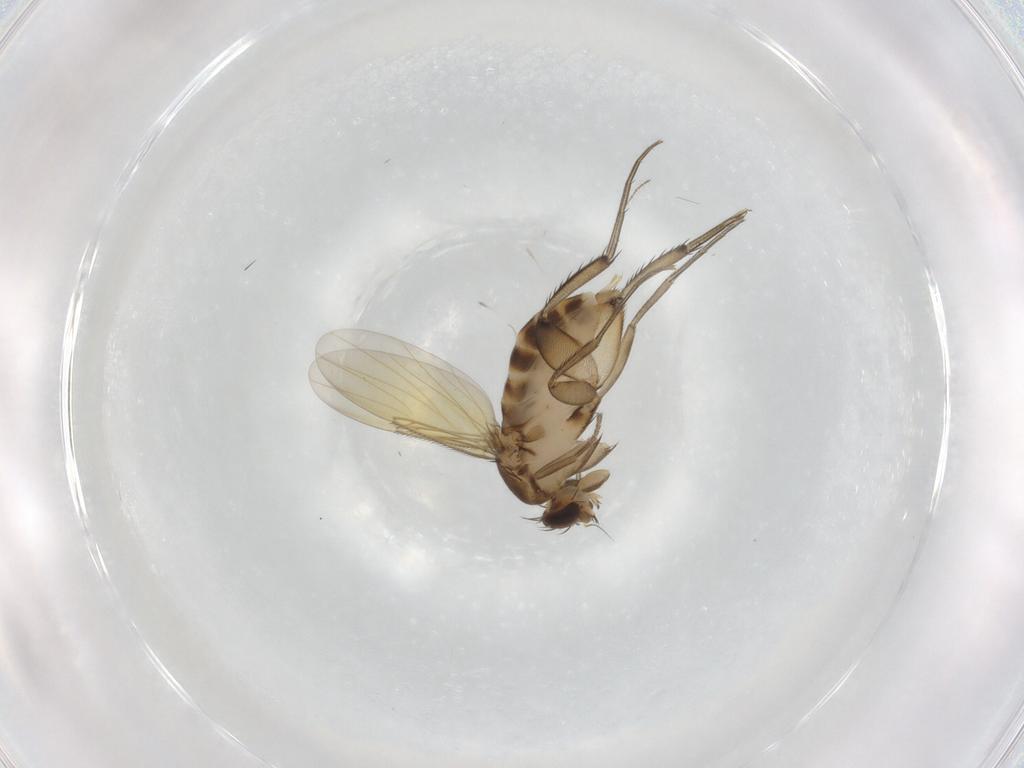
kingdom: Animalia
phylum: Arthropoda
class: Insecta
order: Diptera
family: Phoridae
